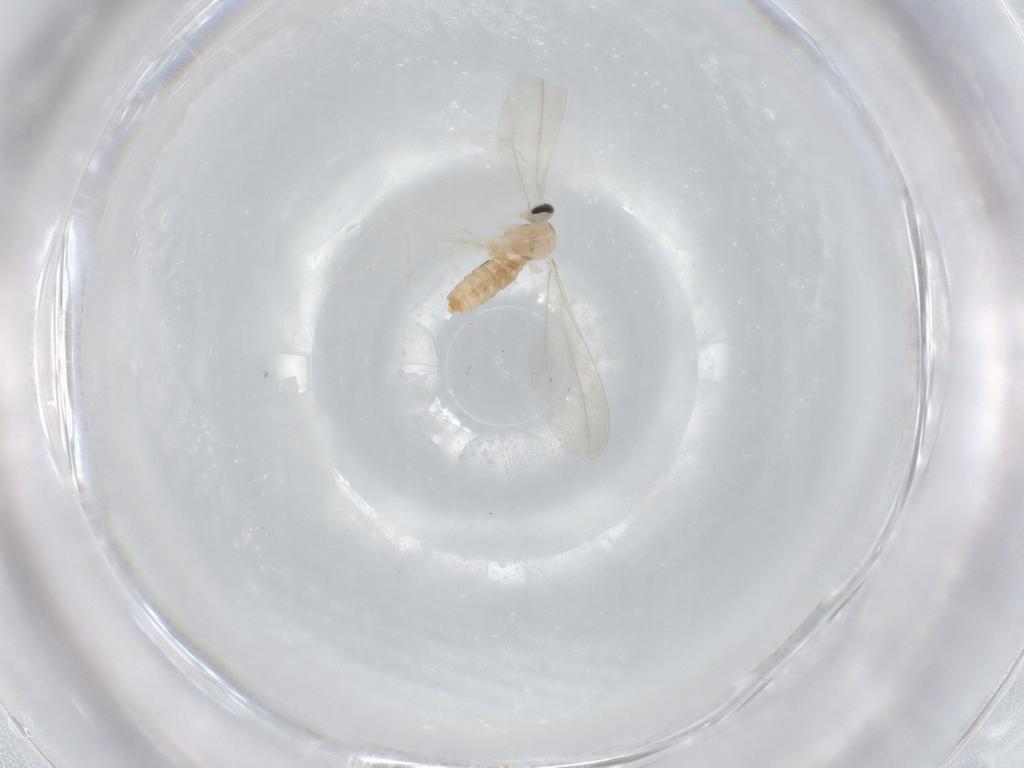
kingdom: Animalia
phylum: Arthropoda
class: Insecta
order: Diptera
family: Cecidomyiidae
